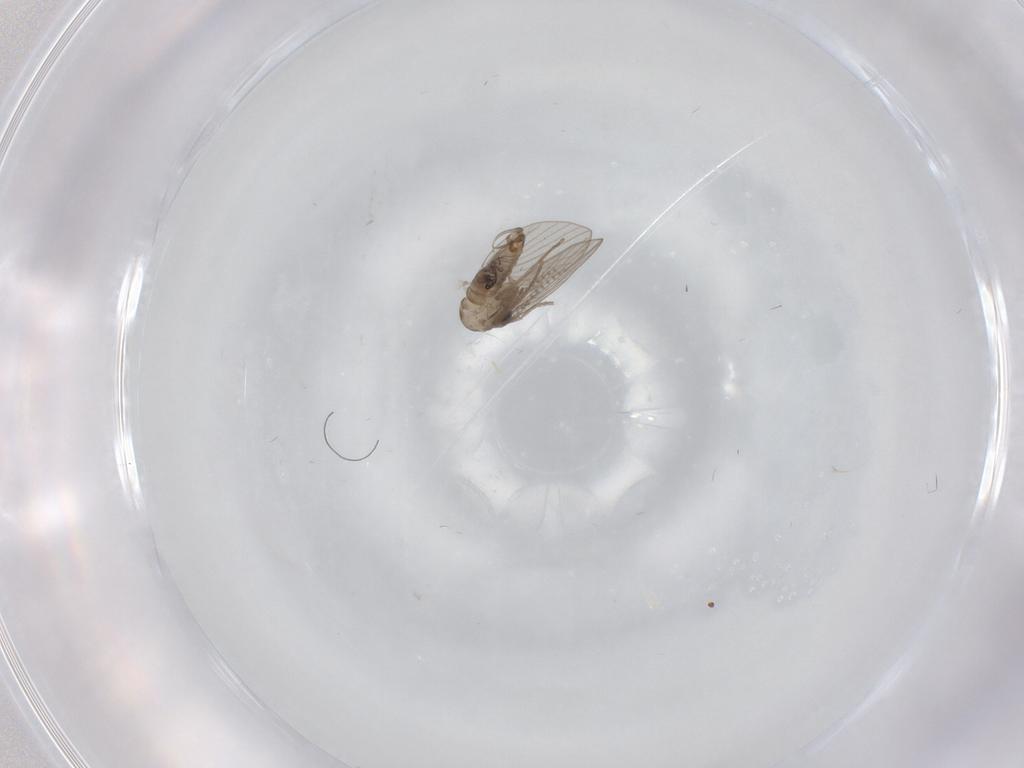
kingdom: Animalia
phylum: Arthropoda
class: Insecta
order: Diptera
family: Psychodidae
